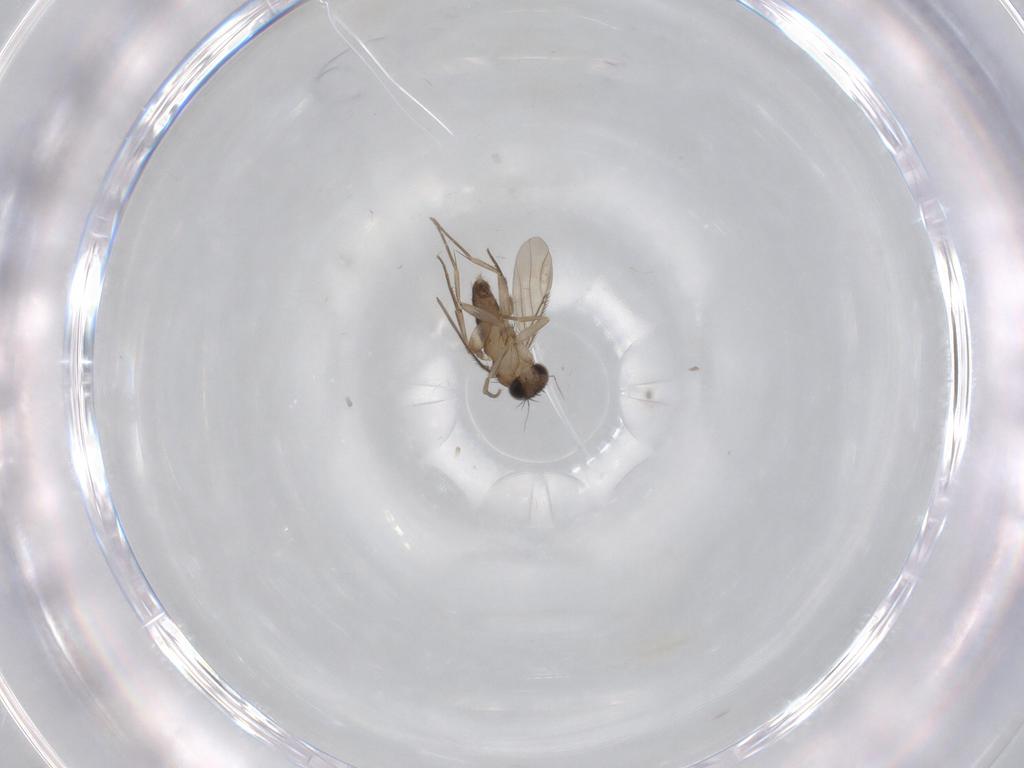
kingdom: Animalia
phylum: Arthropoda
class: Insecta
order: Diptera
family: Phoridae
